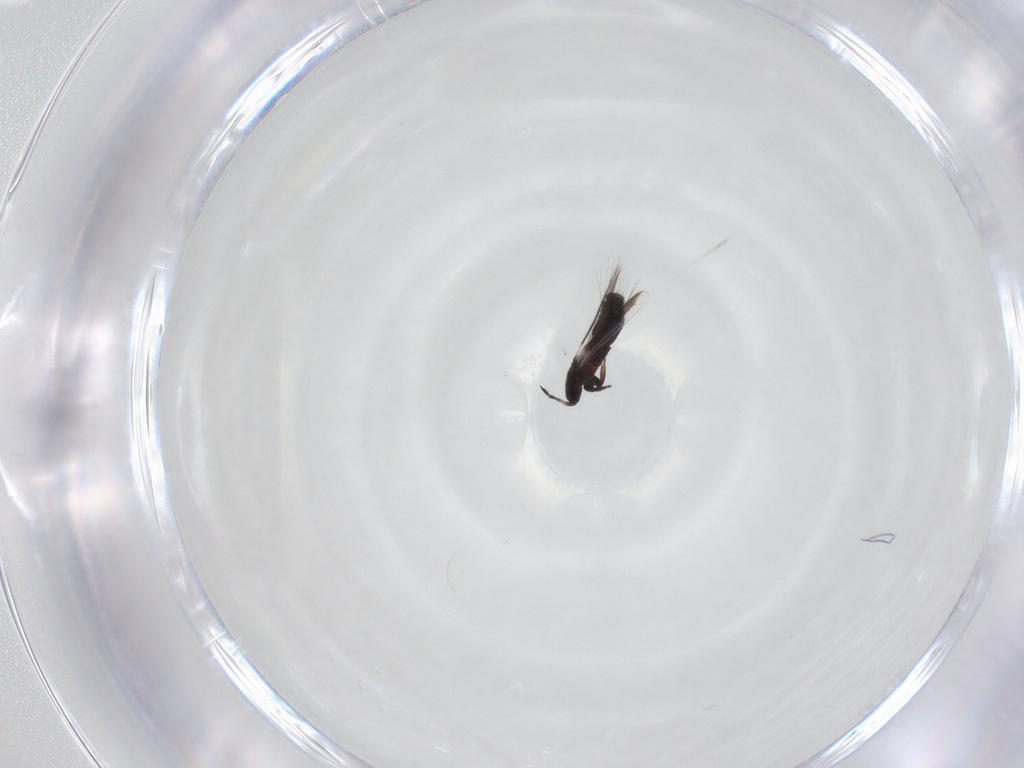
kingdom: Animalia
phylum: Arthropoda
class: Insecta
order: Thysanoptera
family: Aeolothripidae
